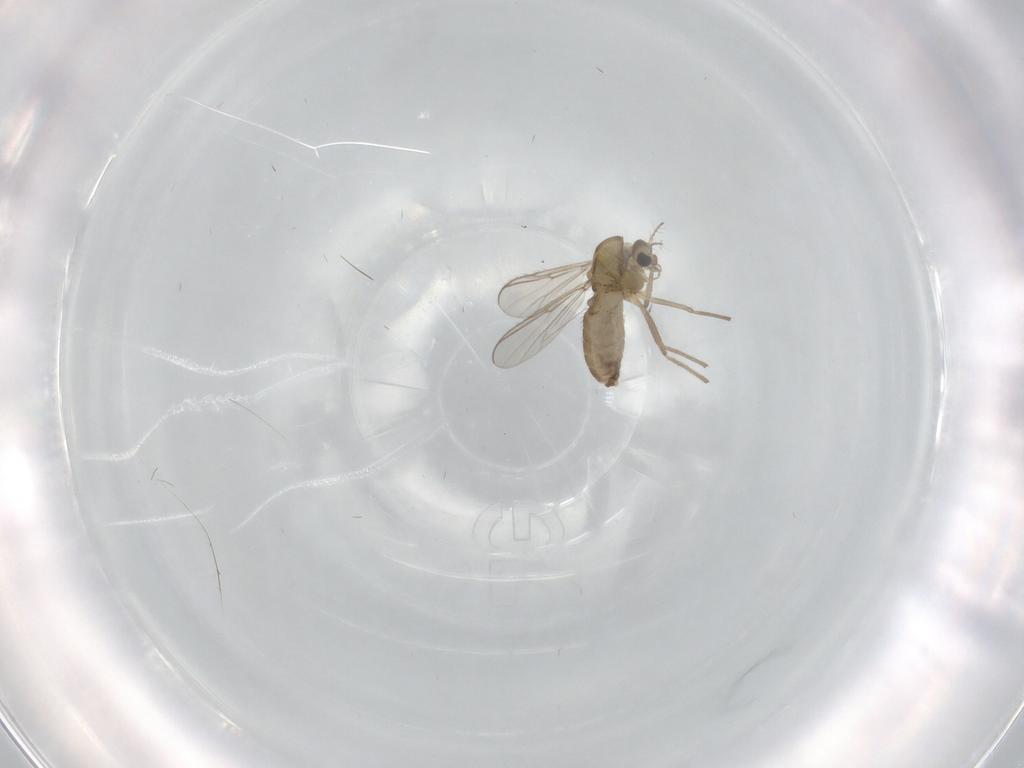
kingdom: Animalia
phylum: Arthropoda
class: Insecta
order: Diptera
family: Chironomidae
